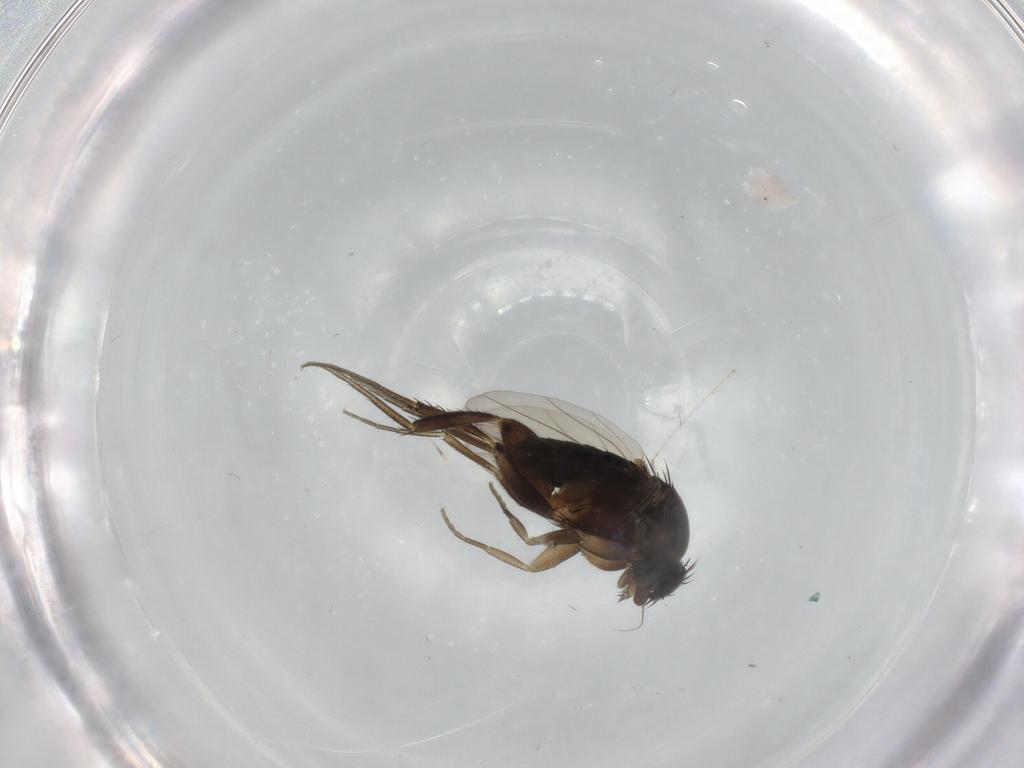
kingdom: Animalia
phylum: Arthropoda
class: Insecta
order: Diptera
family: Phoridae
